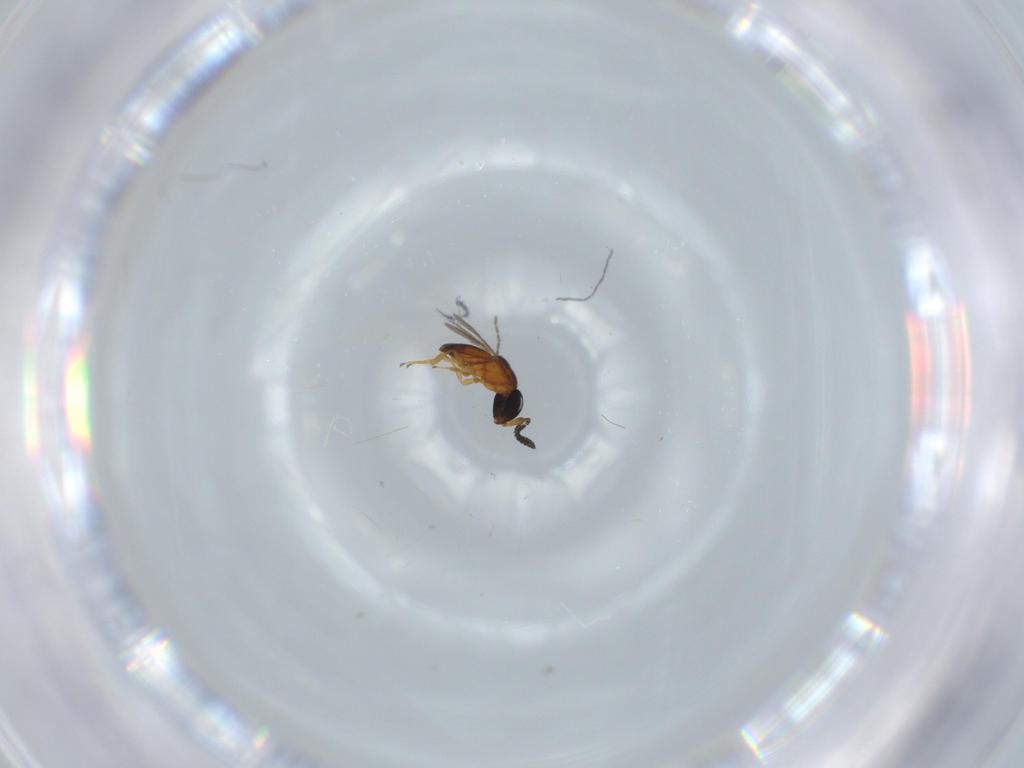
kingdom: Animalia
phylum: Arthropoda
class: Insecta
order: Hymenoptera
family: Scelionidae
